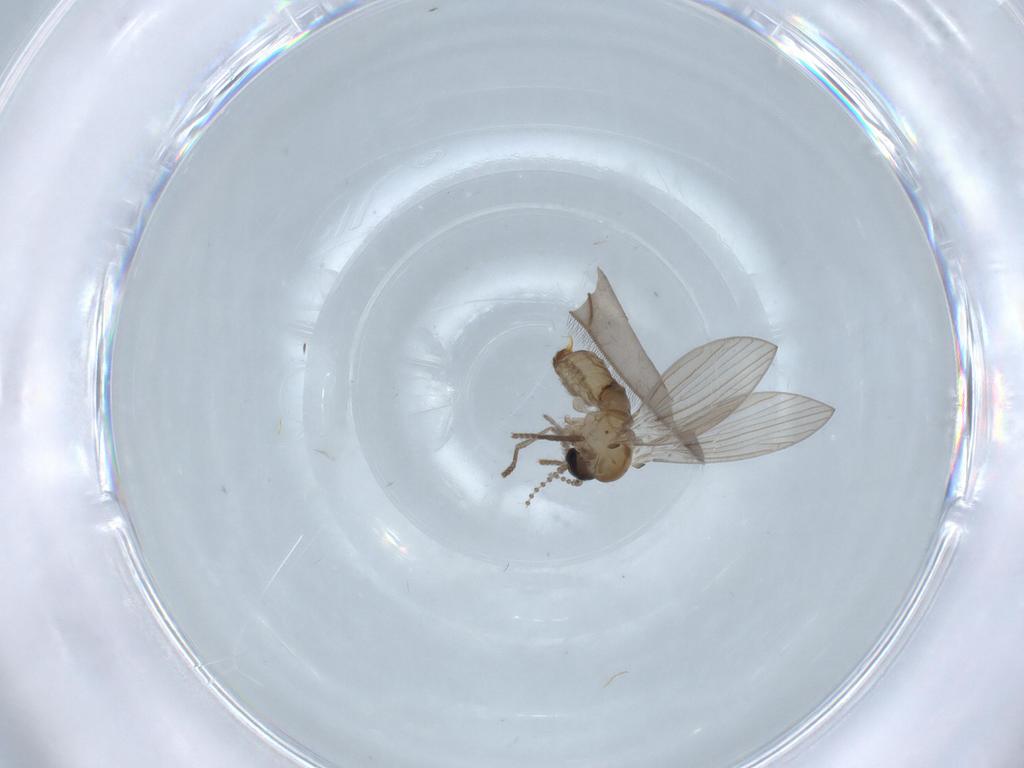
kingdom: Animalia
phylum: Arthropoda
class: Insecta
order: Diptera
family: Psychodidae
